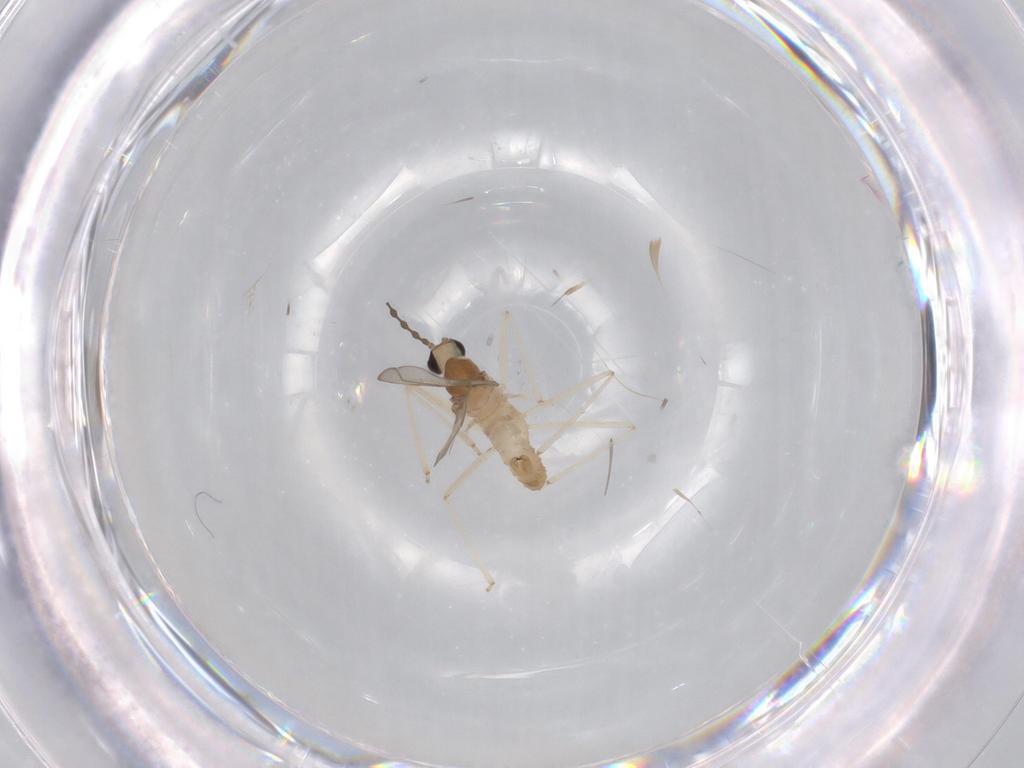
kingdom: Animalia
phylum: Arthropoda
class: Insecta
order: Diptera
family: Cecidomyiidae
